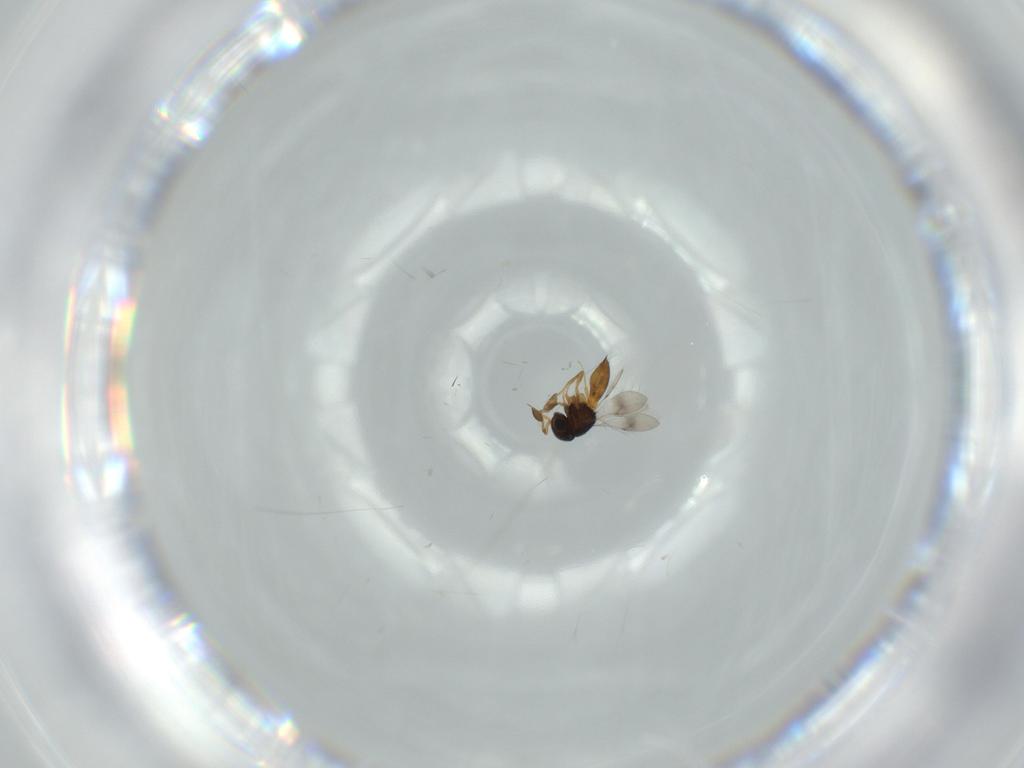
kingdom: Animalia
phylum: Arthropoda
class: Insecta
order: Hymenoptera
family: Scelionidae
